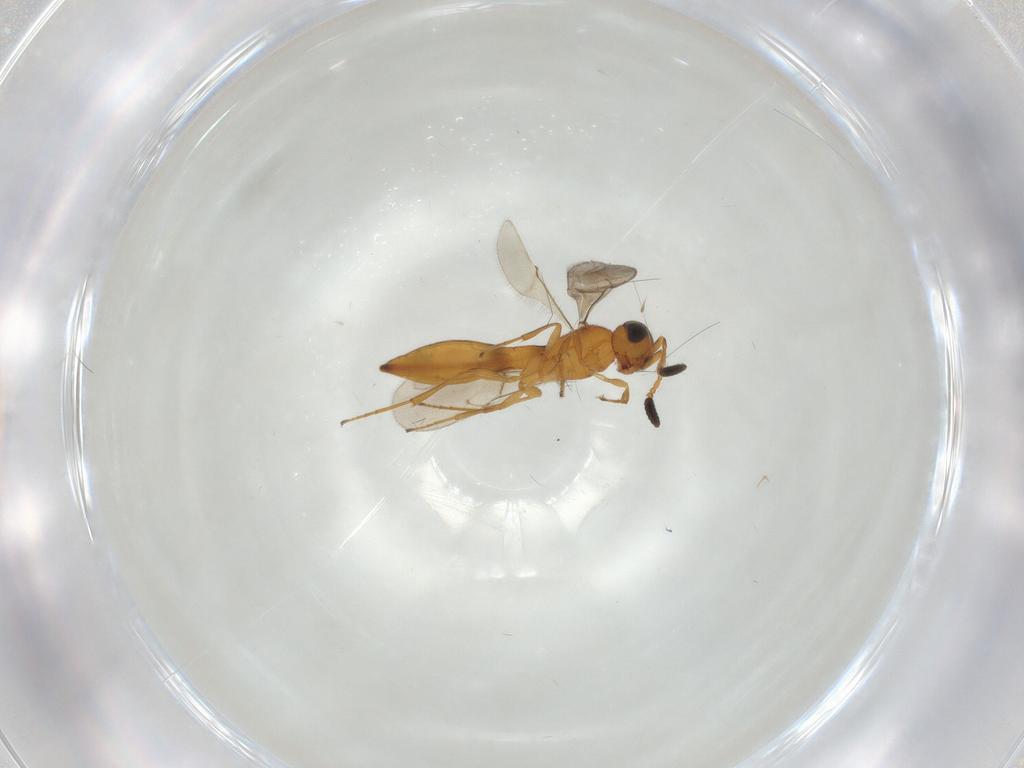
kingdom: Animalia
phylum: Arthropoda
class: Insecta
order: Hymenoptera
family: Scelionidae
